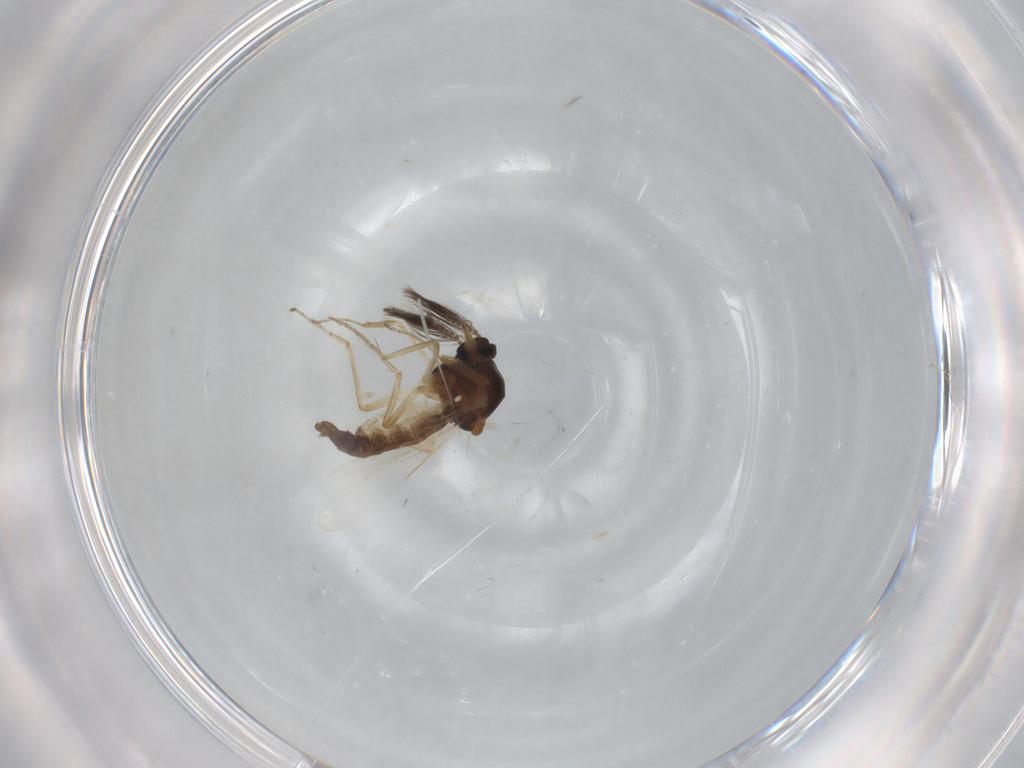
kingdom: Animalia
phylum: Arthropoda
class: Insecta
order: Diptera
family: Ceratopogonidae
